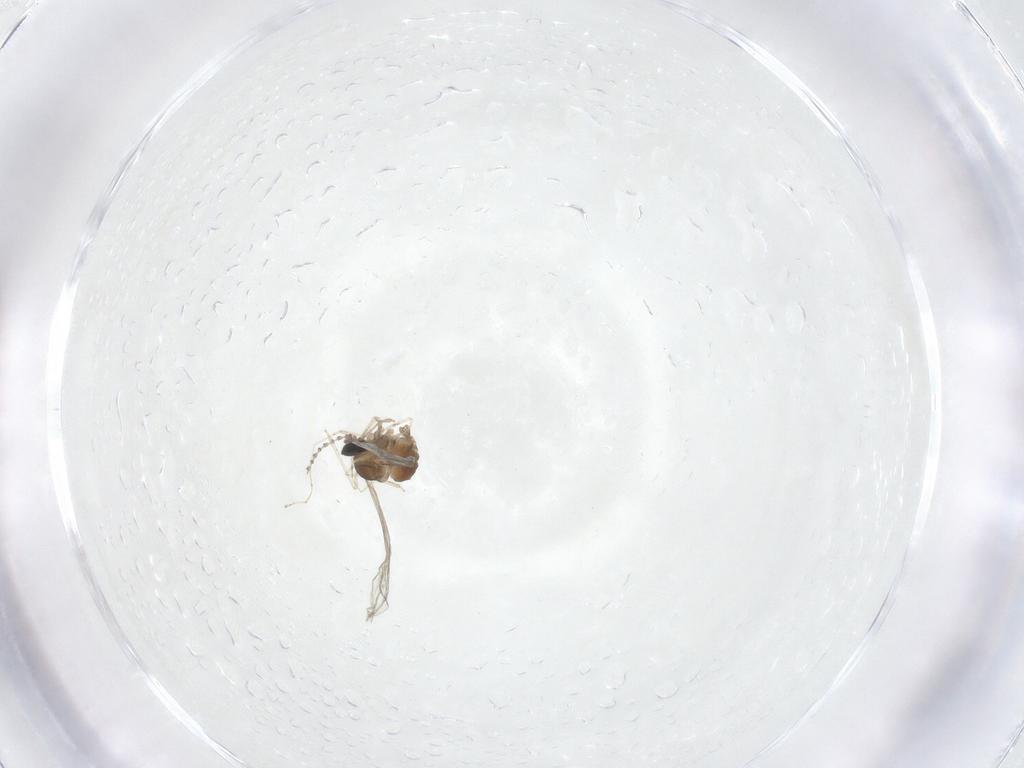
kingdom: Animalia
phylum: Arthropoda
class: Insecta
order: Diptera
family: Cecidomyiidae
